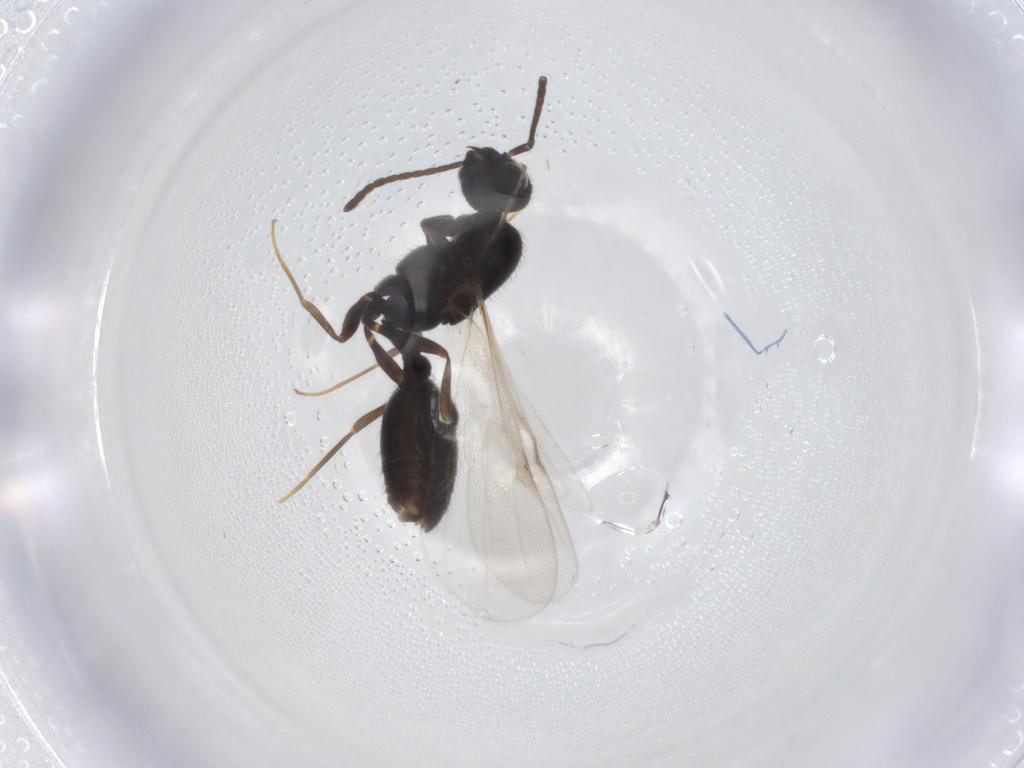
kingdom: Animalia
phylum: Arthropoda
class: Insecta
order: Hymenoptera
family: Formicidae
